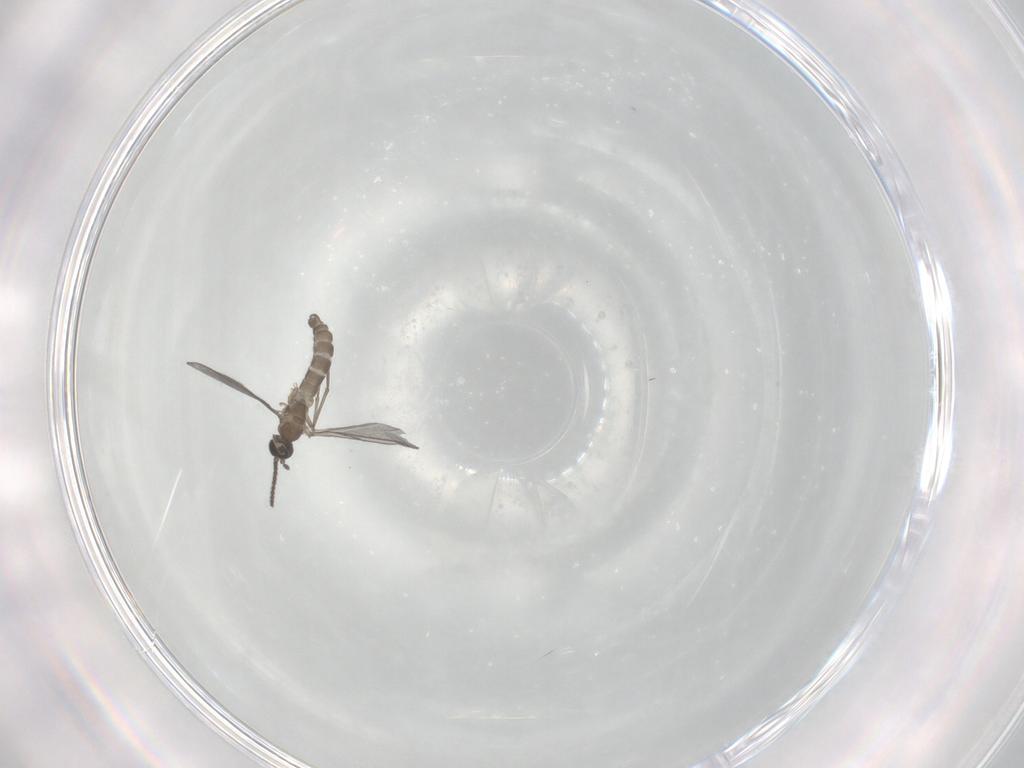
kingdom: Animalia
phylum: Arthropoda
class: Insecta
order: Diptera
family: Sciaridae
